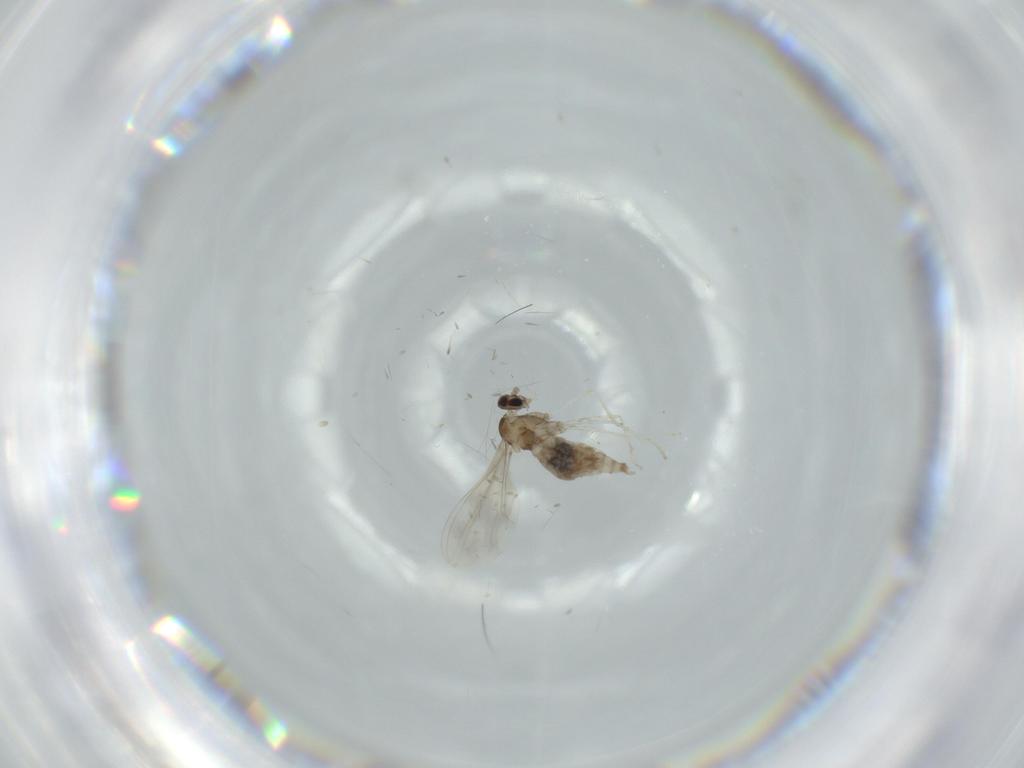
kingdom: Animalia
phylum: Arthropoda
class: Insecta
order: Diptera
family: Cecidomyiidae
